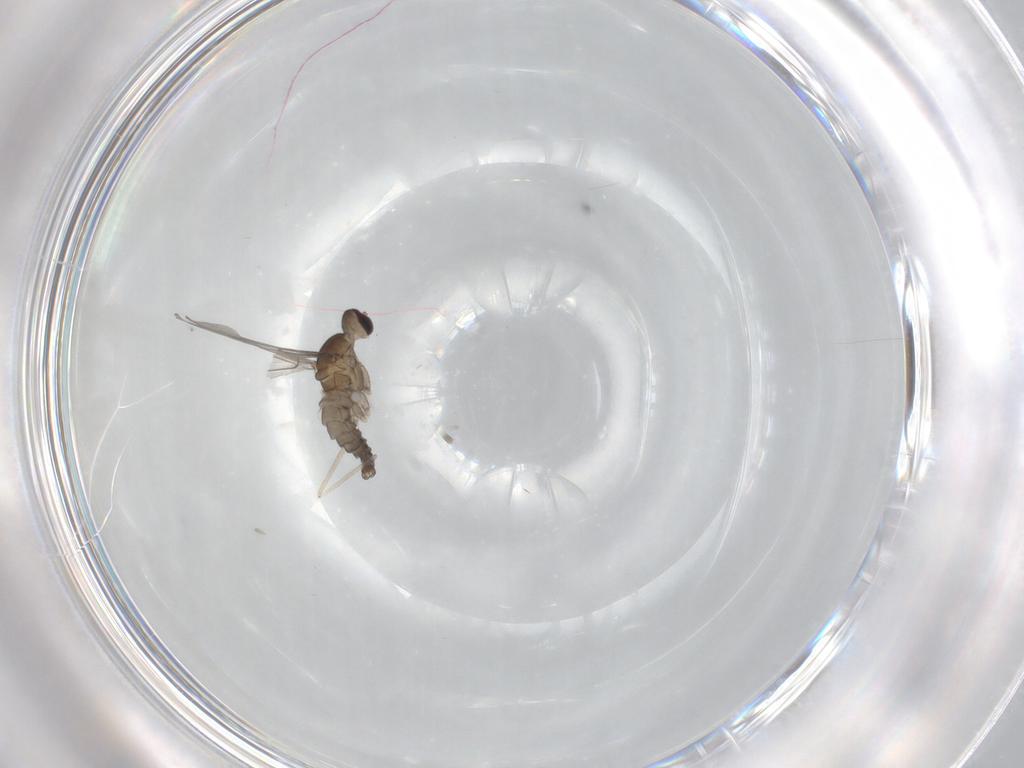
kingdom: Animalia
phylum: Arthropoda
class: Insecta
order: Diptera
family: Cecidomyiidae
